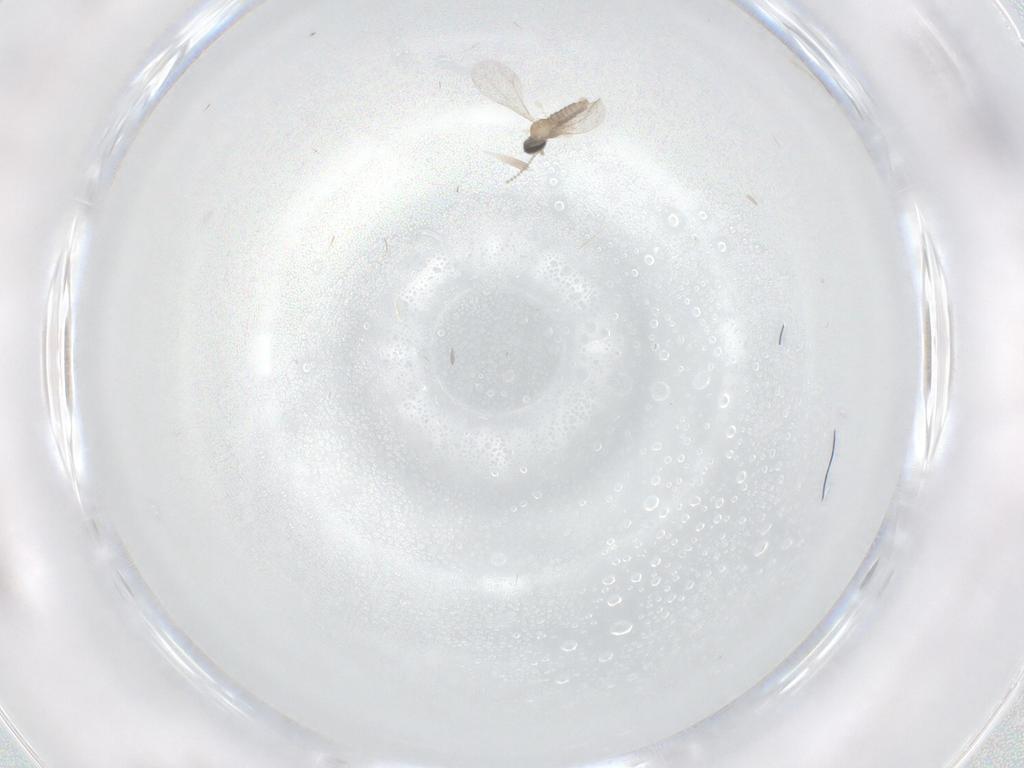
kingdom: Animalia
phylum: Arthropoda
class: Insecta
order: Diptera
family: Cecidomyiidae
